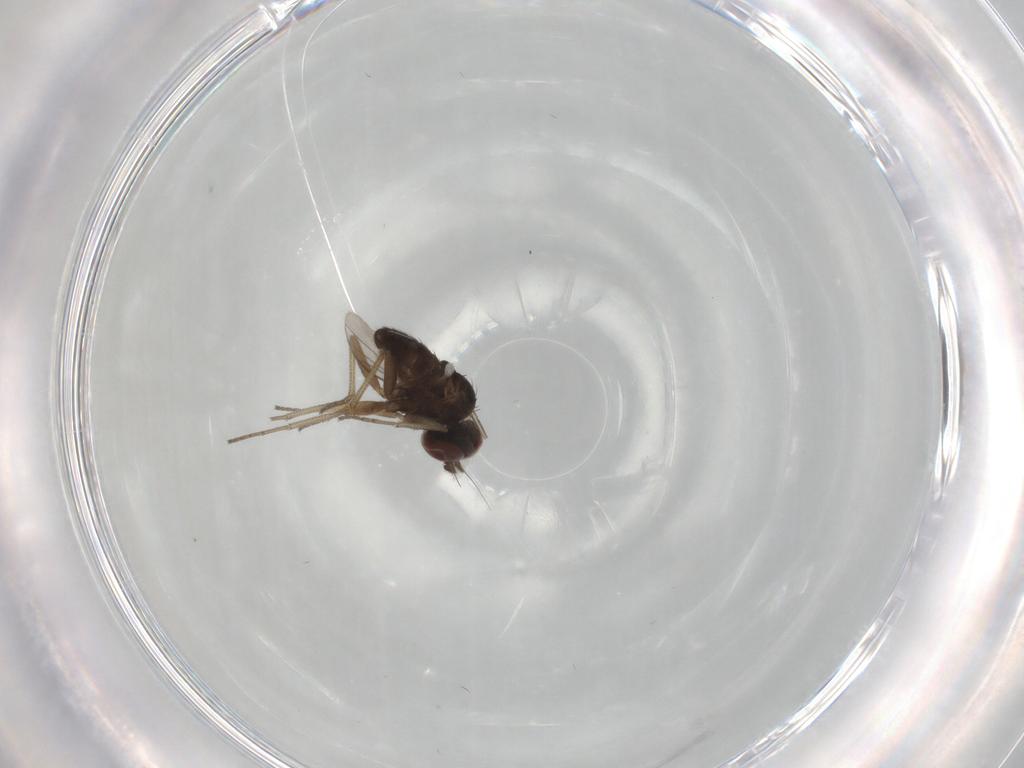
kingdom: Animalia
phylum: Arthropoda
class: Insecta
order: Diptera
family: Dolichopodidae
